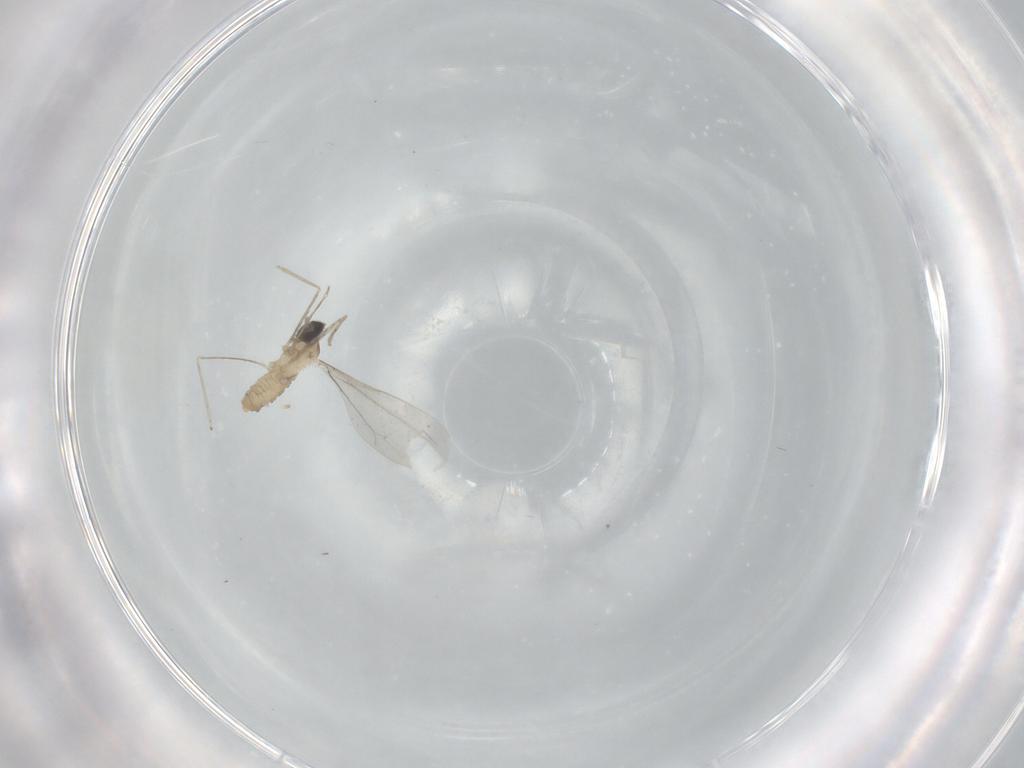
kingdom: Animalia
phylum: Arthropoda
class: Insecta
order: Diptera
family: Cecidomyiidae
